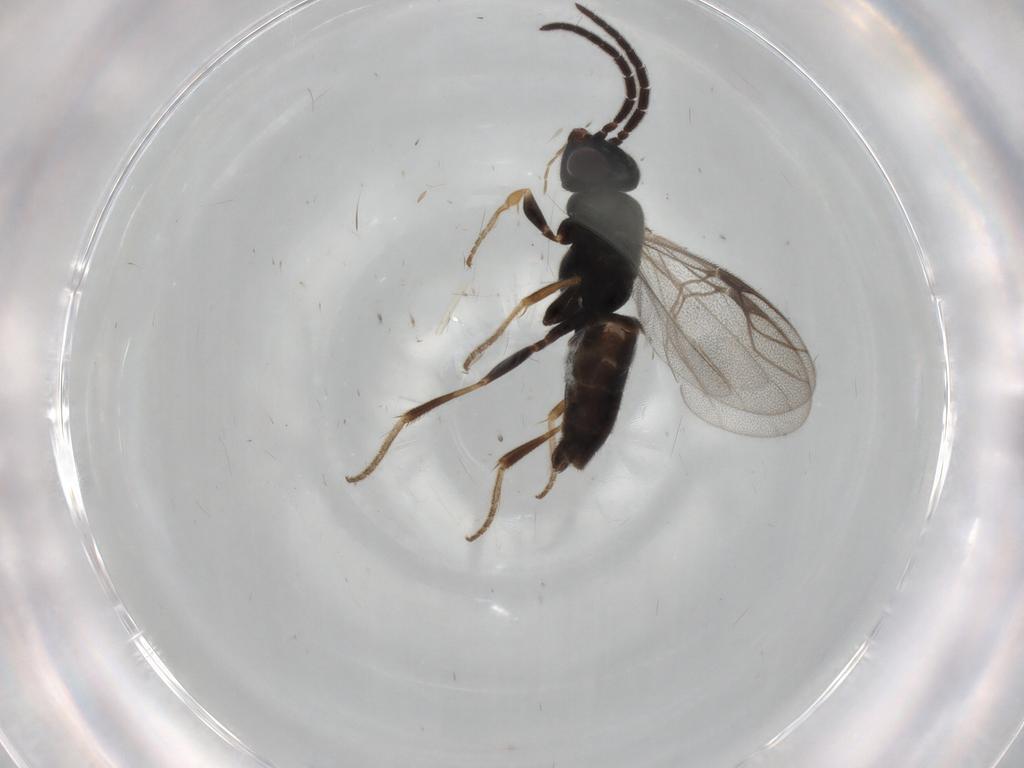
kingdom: Animalia
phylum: Arthropoda
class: Insecta
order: Hymenoptera
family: Dryinidae
